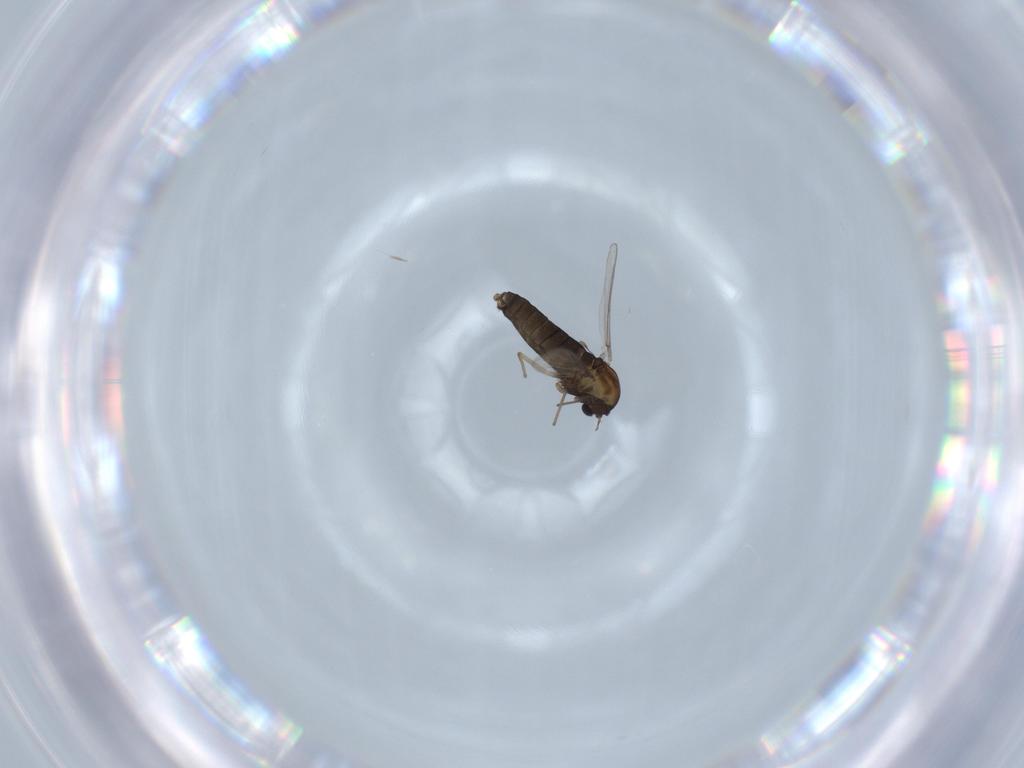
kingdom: Animalia
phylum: Arthropoda
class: Insecta
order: Diptera
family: Chironomidae
